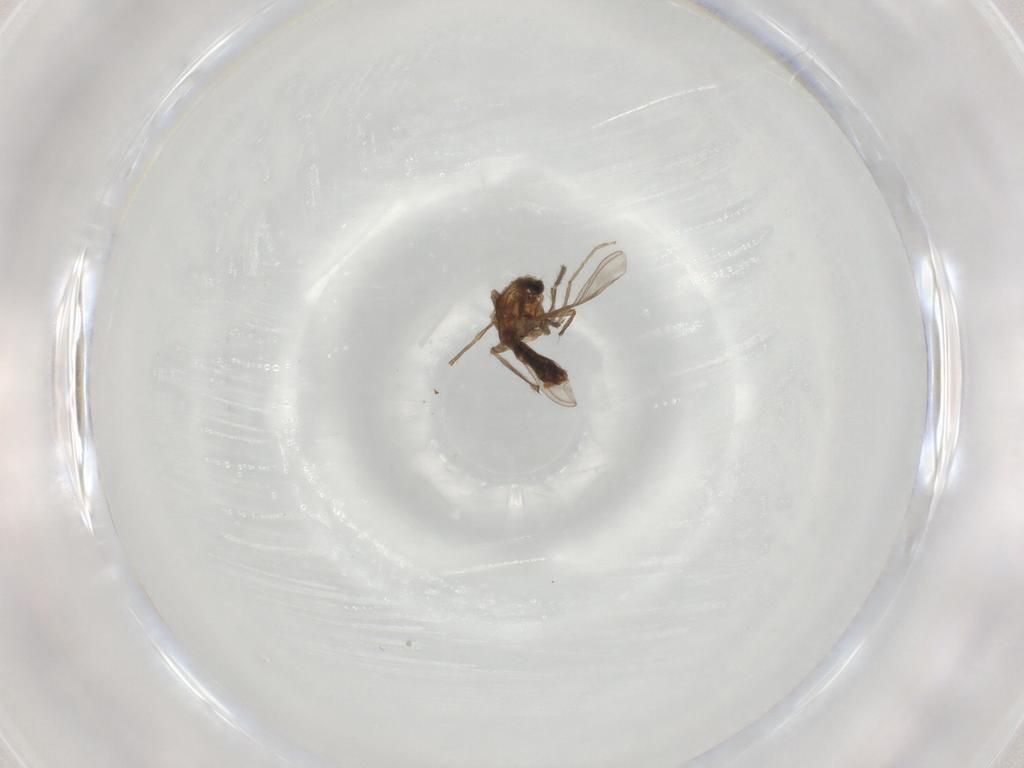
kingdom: Animalia
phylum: Arthropoda
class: Insecta
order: Diptera
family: Chironomidae
